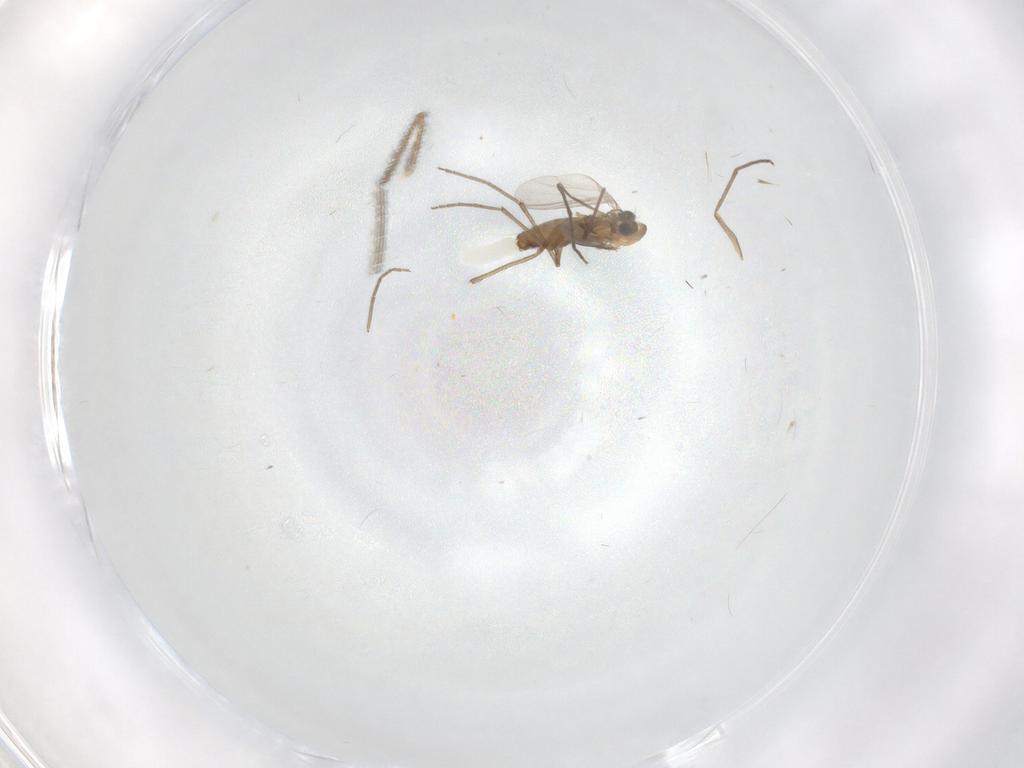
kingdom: Animalia
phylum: Arthropoda
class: Insecta
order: Diptera
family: Chironomidae
